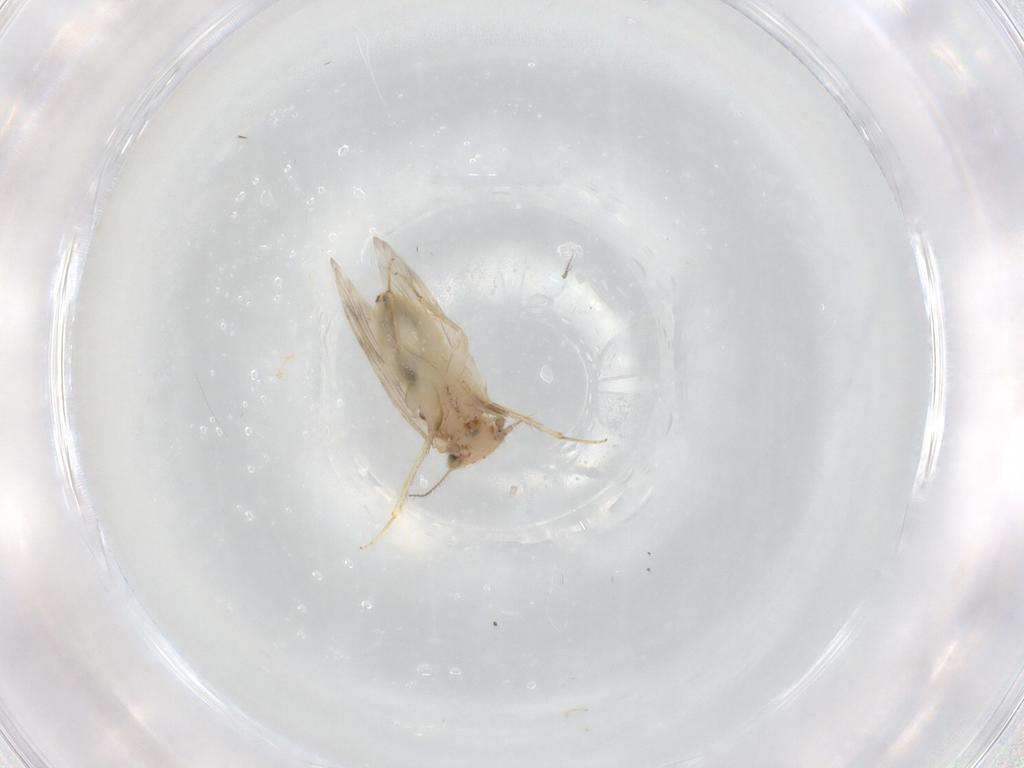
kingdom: Animalia
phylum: Arthropoda
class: Insecta
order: Psocodea
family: Lepidopsocidae
